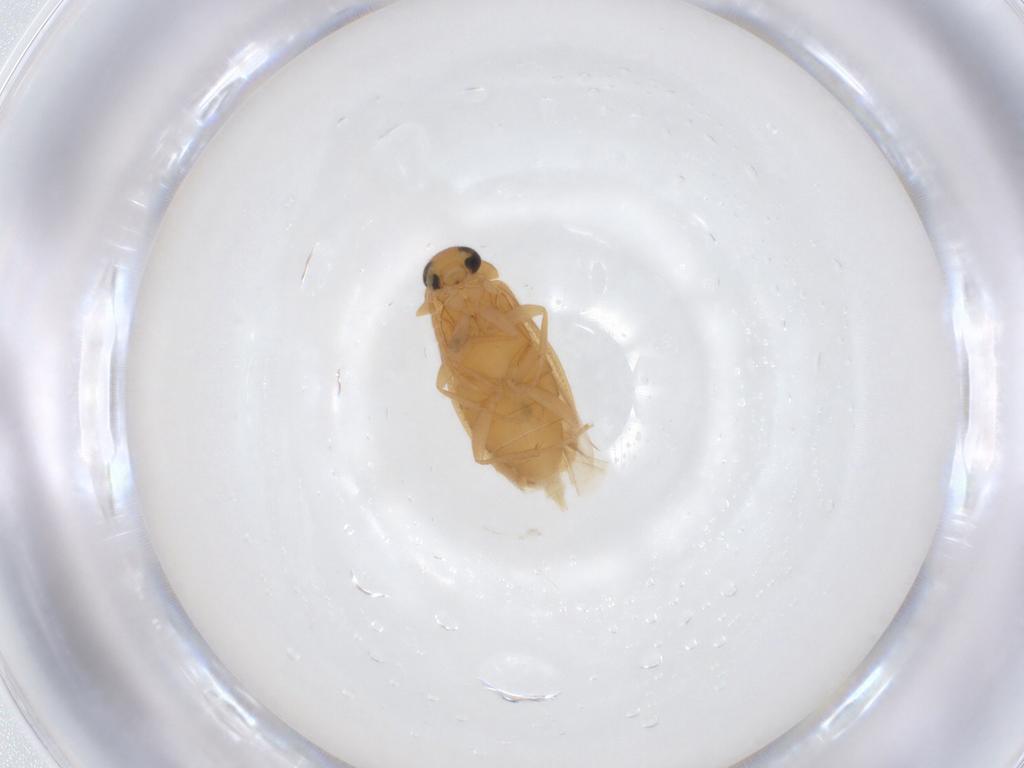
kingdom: Animalia
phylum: Arthropoda
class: Insecta
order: Coleoptera
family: Scraptiidae
